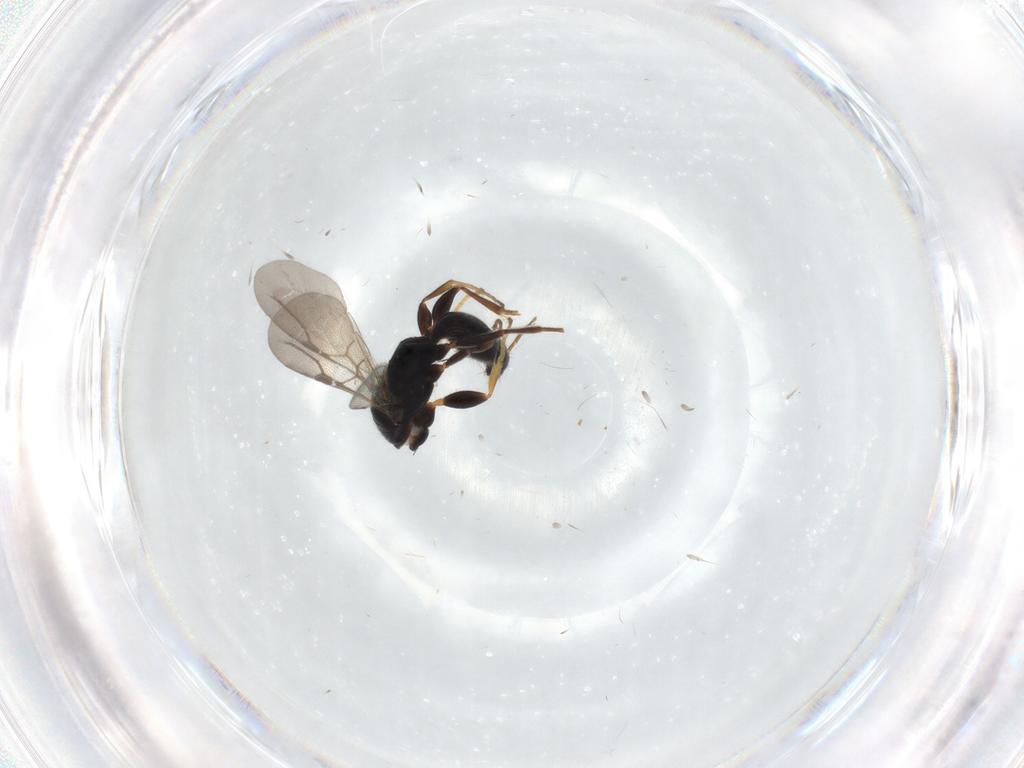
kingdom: Animalia
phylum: Arthropoda
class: Insecta
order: Hymenoptera
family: Bethylidae
